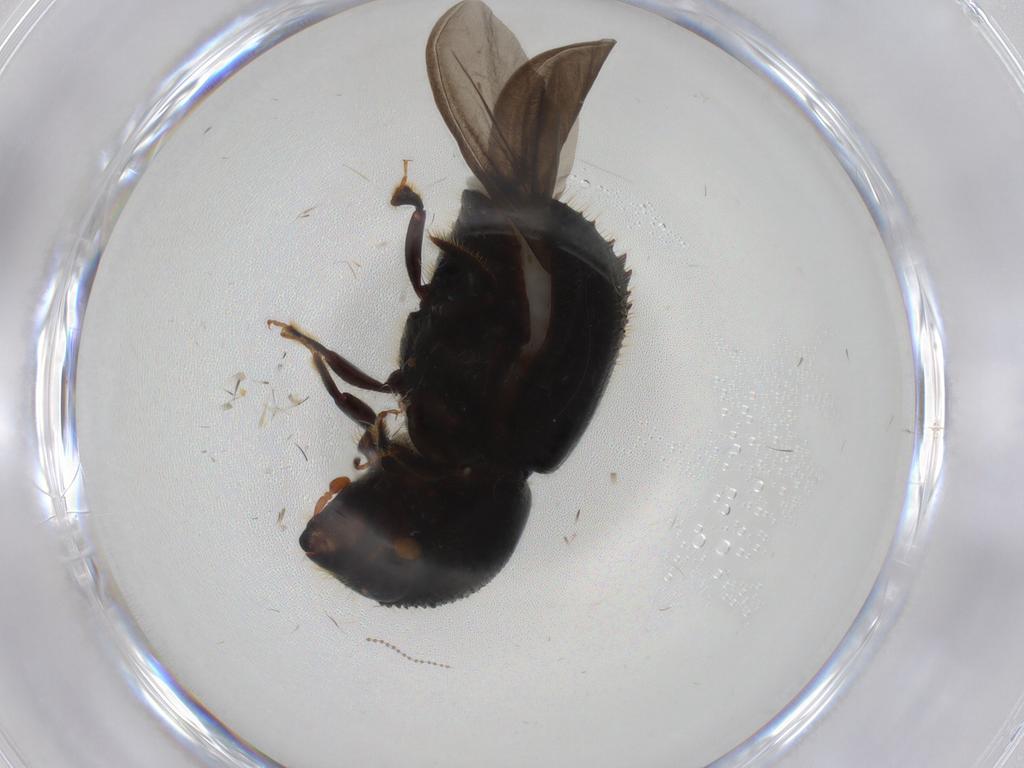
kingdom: Animalia
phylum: Arthropoda
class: Insecta
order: Coleoptera
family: Curculionidae
